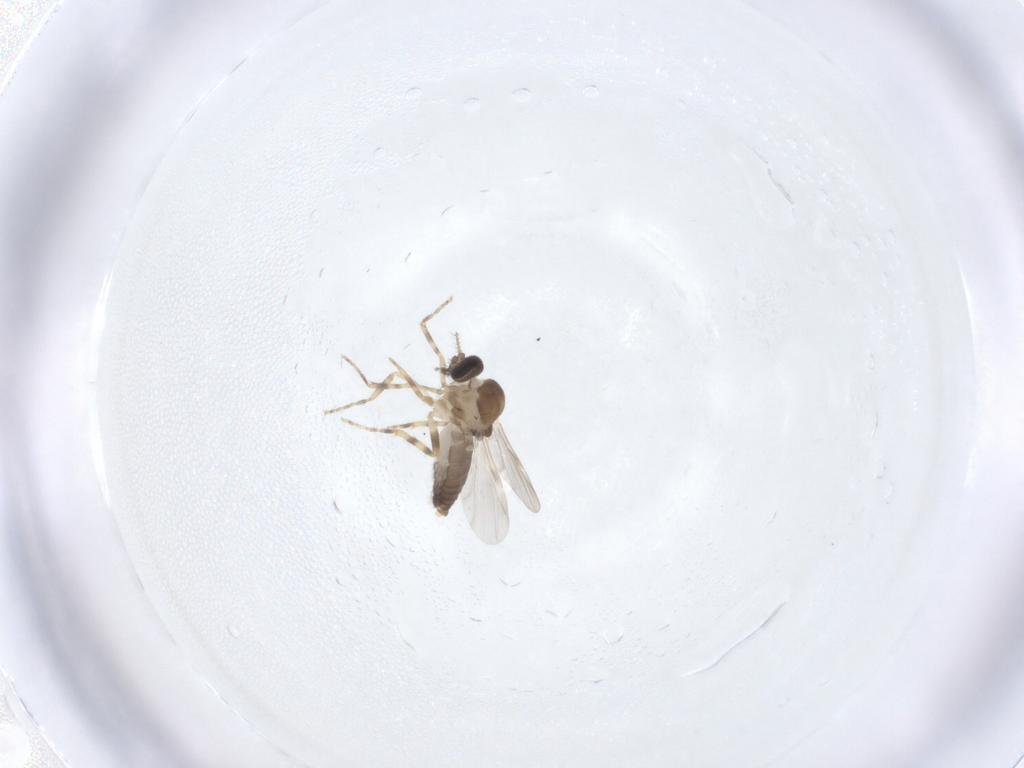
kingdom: Animalia
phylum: Arthropoda
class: Insecta
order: Diptera
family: Ceratopogonidae
